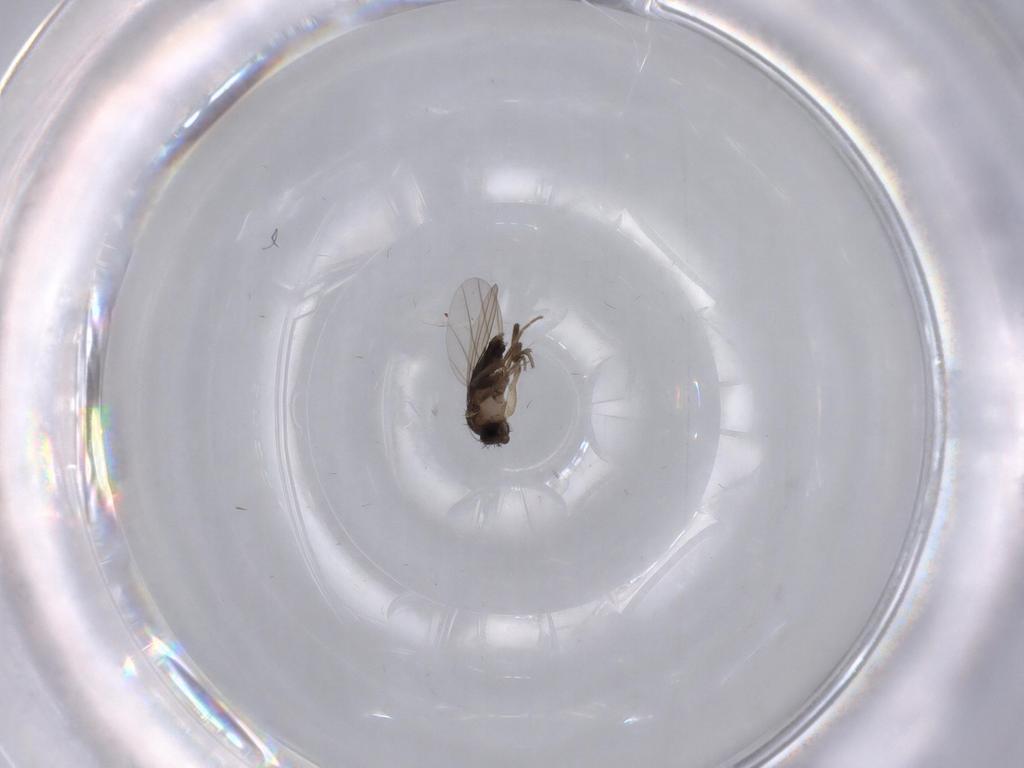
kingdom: Animalia
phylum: Arthropoda
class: Insecta
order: Diptera
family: Phoridae
